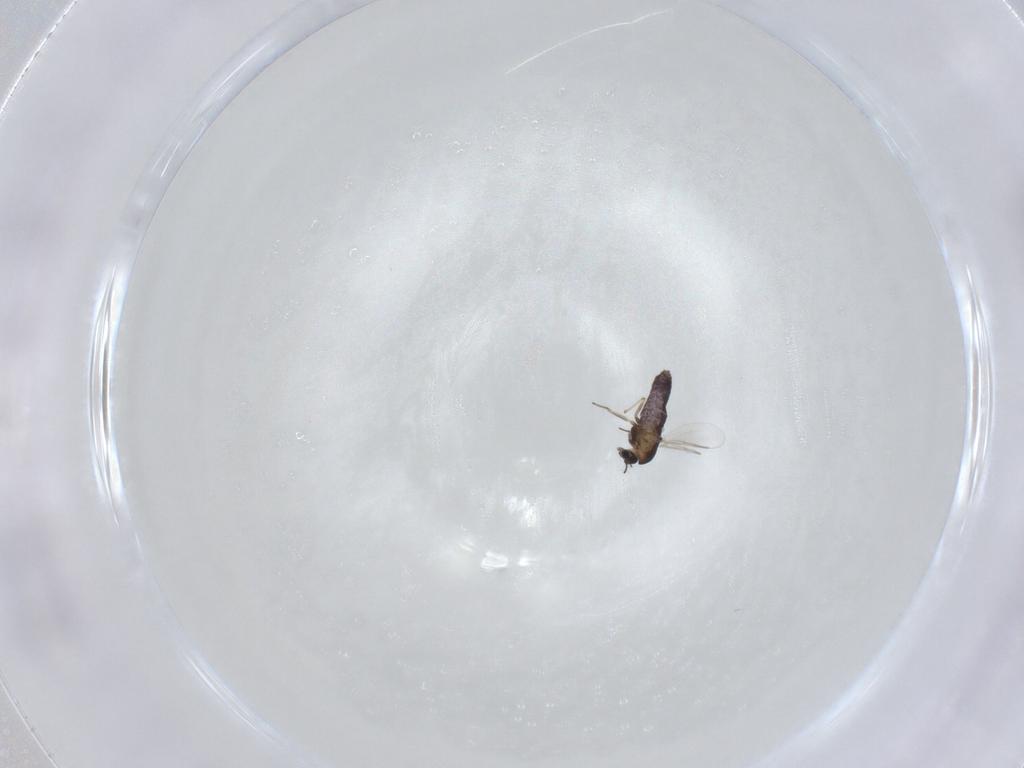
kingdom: Animalia
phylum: Arthropoda
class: Insecta
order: Diptera
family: Chironomidae
